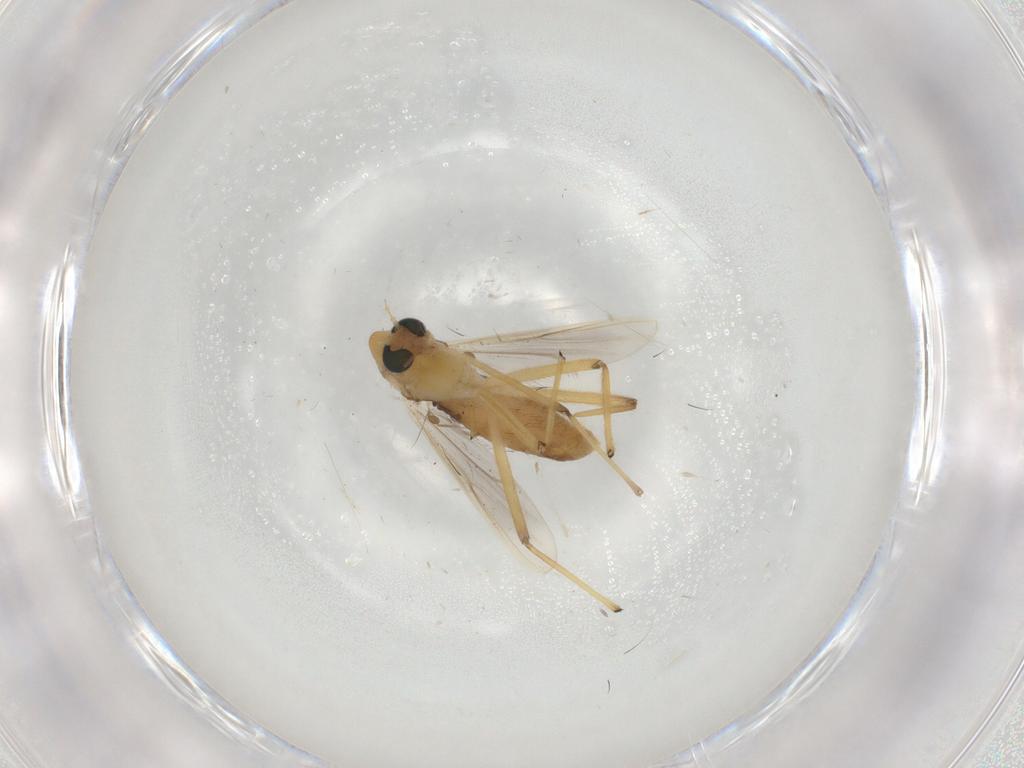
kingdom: Animalia
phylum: Arthropoda
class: Insecta
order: Diptera
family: Chironomidae
